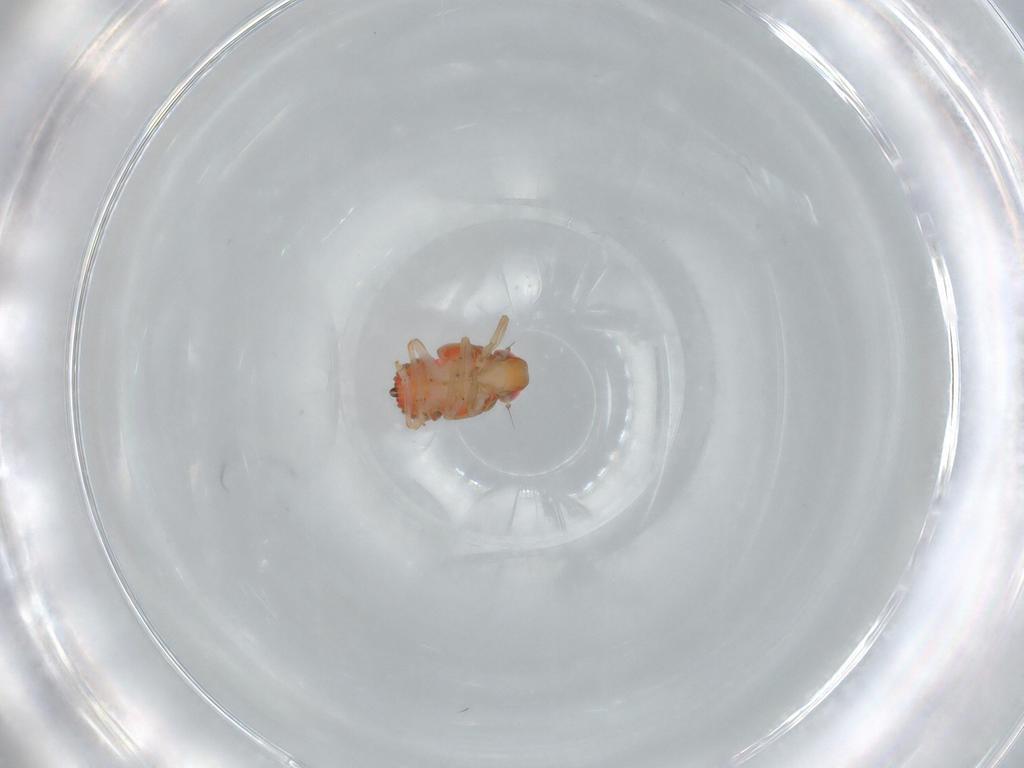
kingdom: Animalia
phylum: Arthropoda
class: Insecta
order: Hemiptera
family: Issidae
